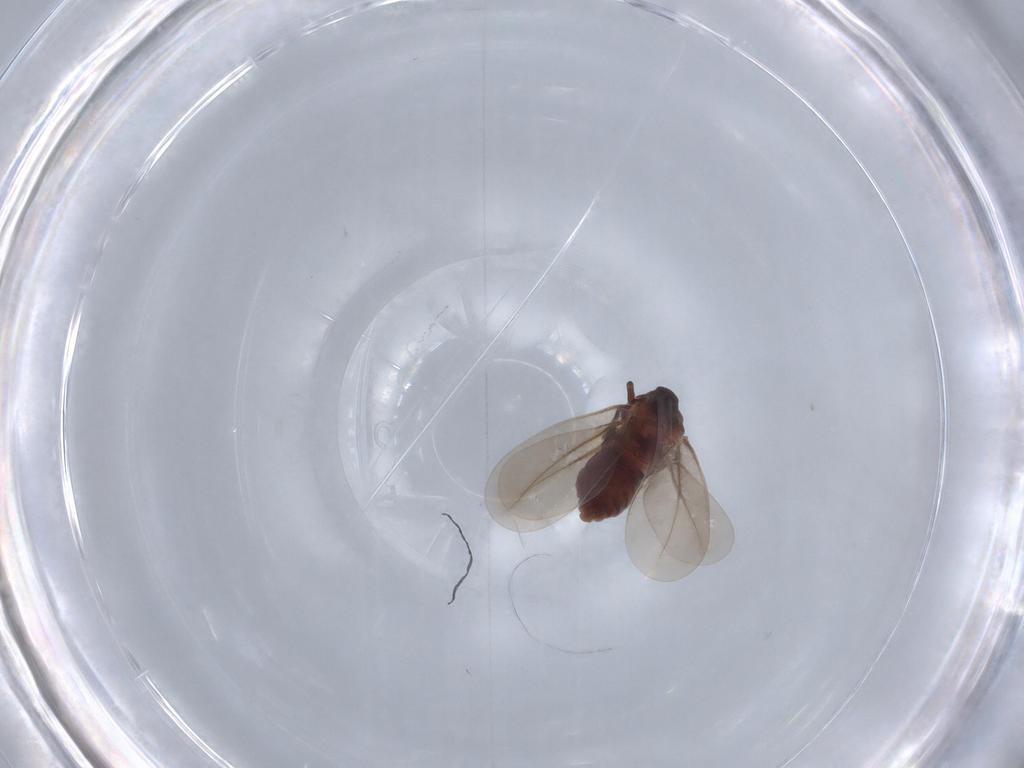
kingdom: Animalia
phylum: Arthropoda
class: Insecta
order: Hemiptera
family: Aleyrodidae
